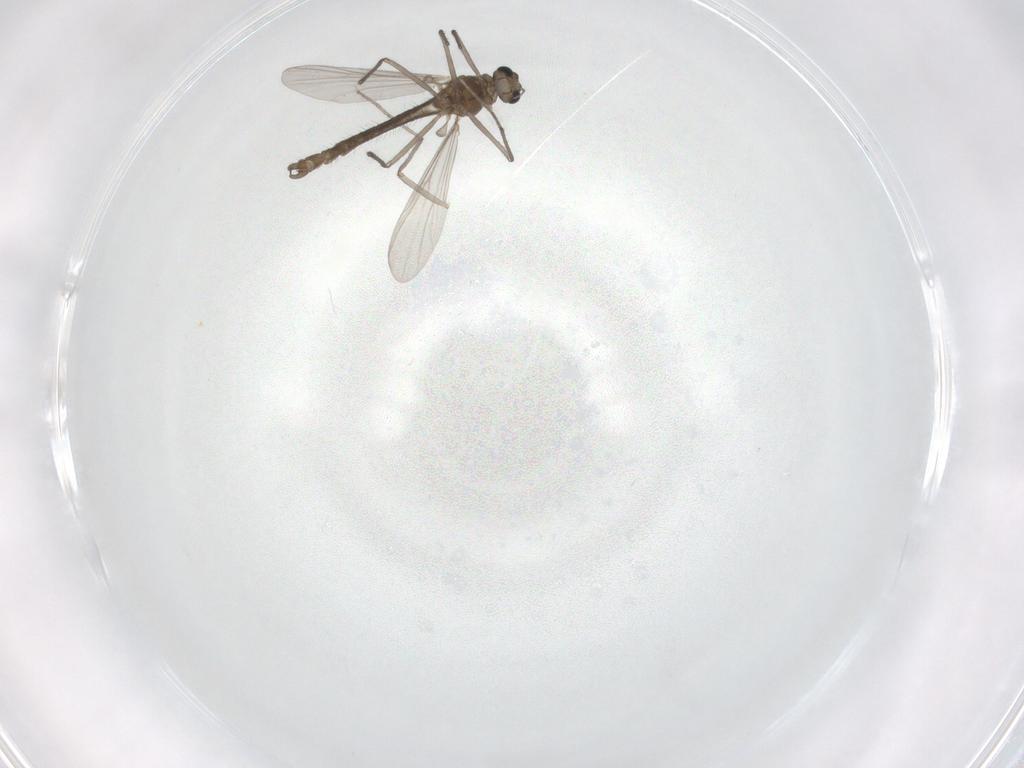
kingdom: Animalia
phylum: Arthropoda
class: Insecta
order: Diptera
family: Chironomidae
